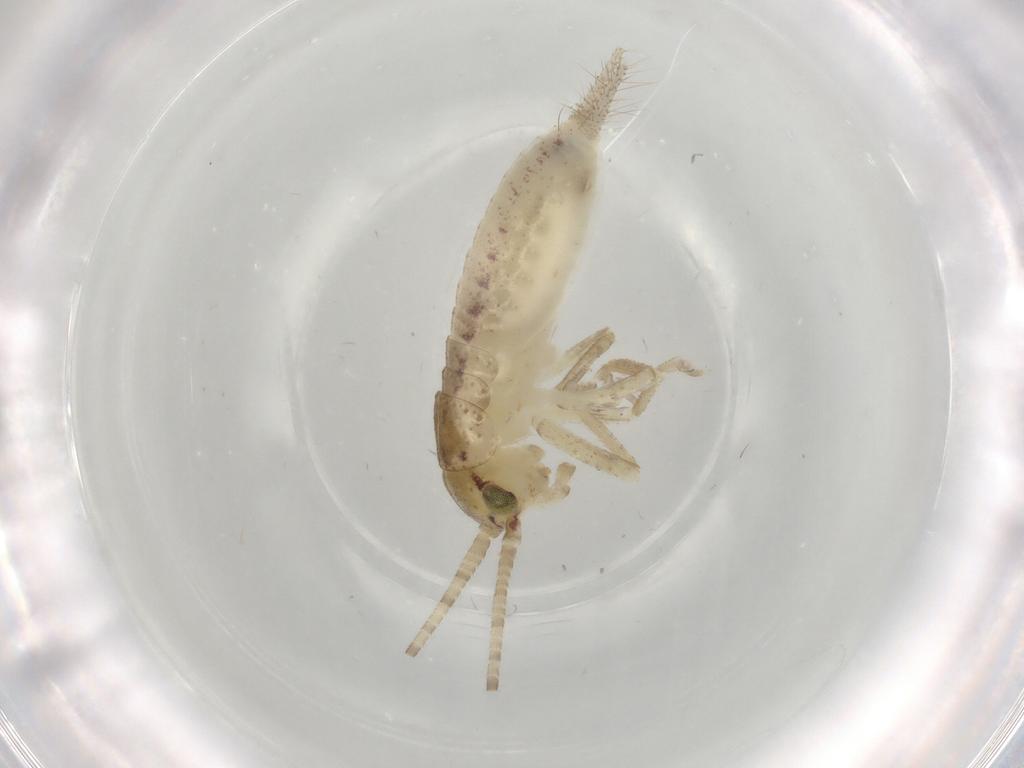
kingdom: Animalia
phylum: Arthropoda
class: Insecta
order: Orthoptera
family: Gryllidae
